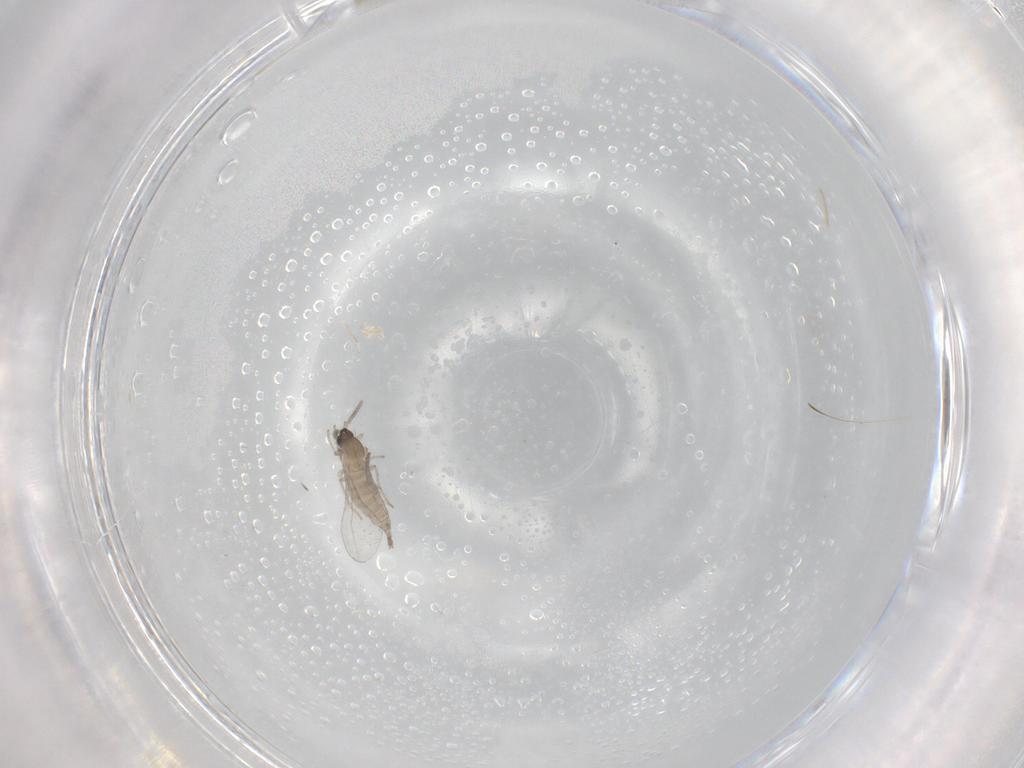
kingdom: Animalia
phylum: Arthropoda
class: Insecta
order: Diptera
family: Cecidomyiidae
